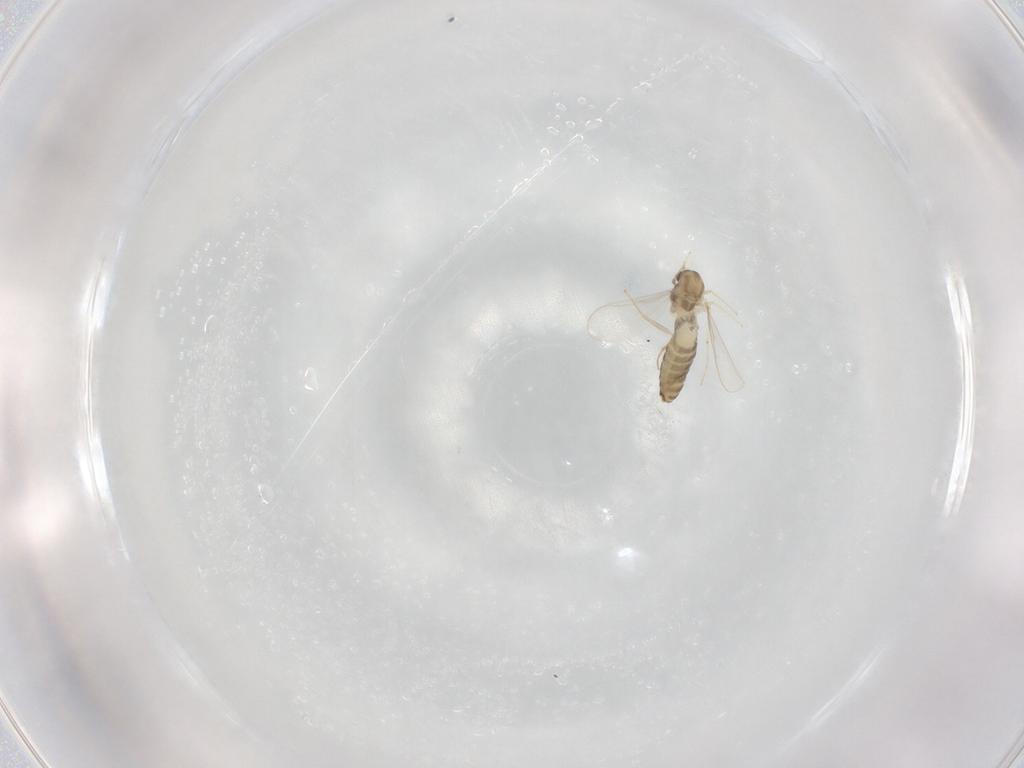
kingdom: Animalia
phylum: Arthropoda
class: Insecta
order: Diptera
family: Chironomidae
